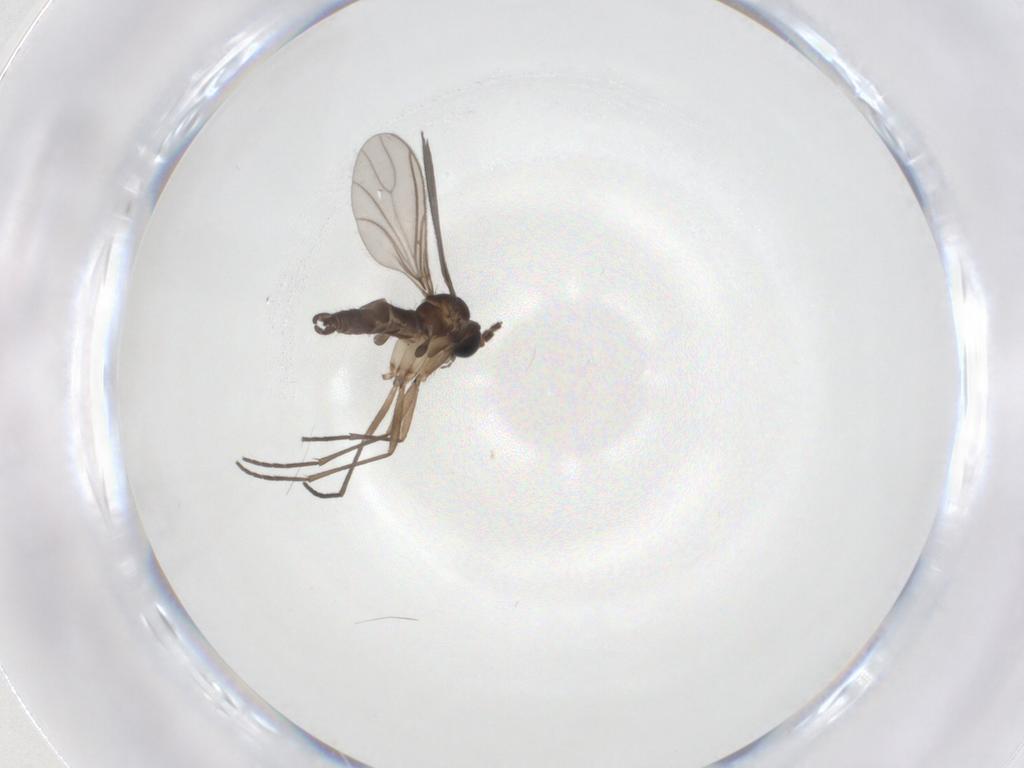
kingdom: Animalia
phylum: Arthropoda
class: Insecta
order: Diptera
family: Sciaridae
